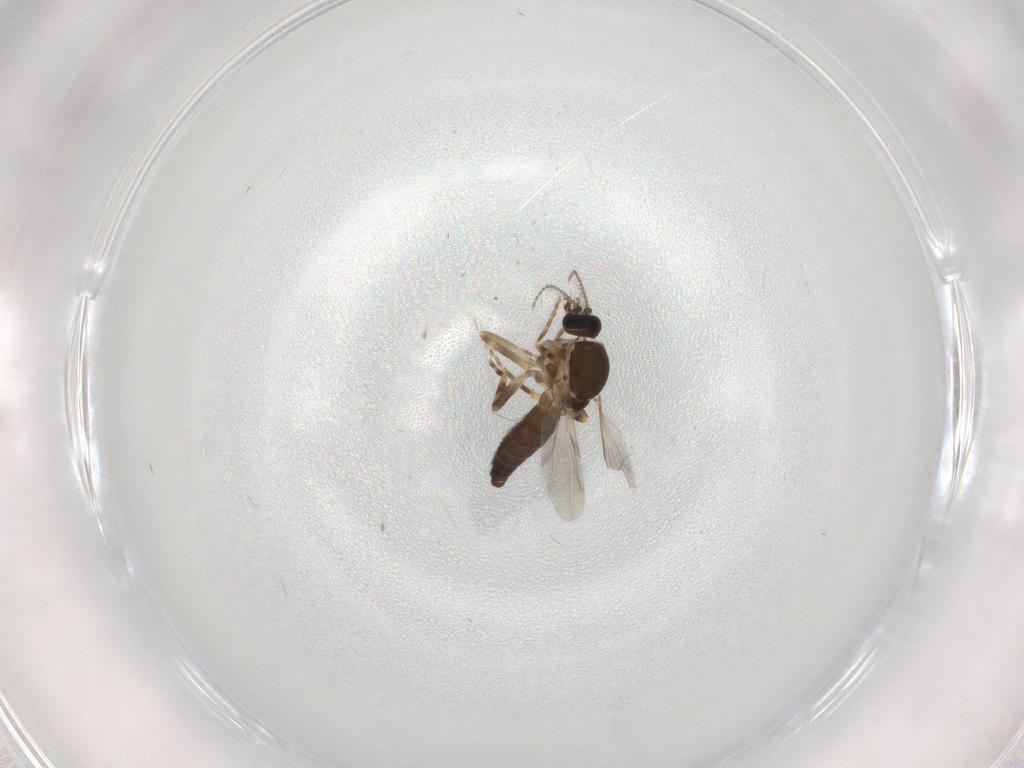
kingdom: Animalia
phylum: Arthropoda
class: Insecta
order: Diptera
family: Ceratopogonidae
